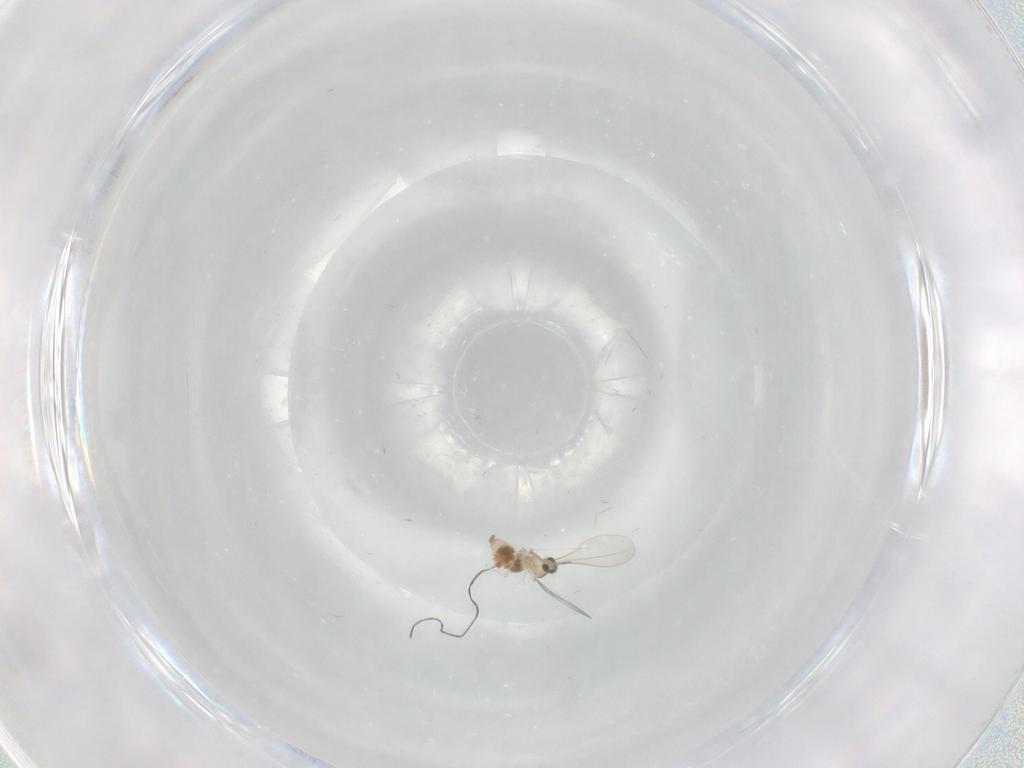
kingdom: Animalia
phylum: Arthropoda
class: Insecta
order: Diptera
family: Cecidomyiidae
